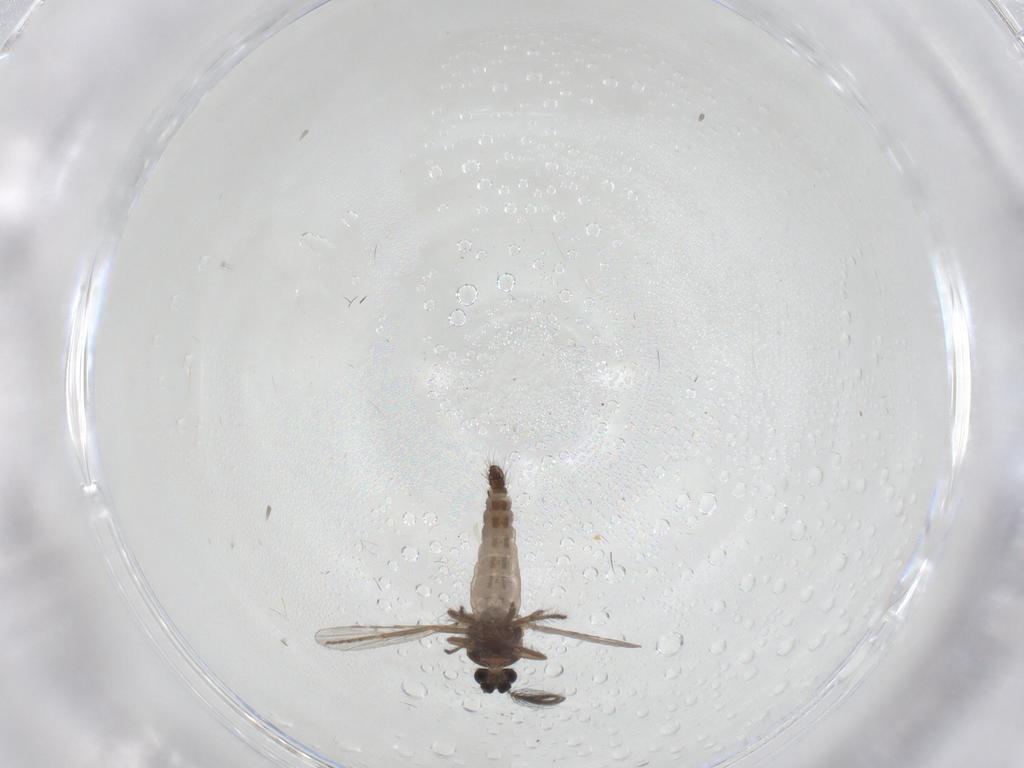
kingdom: Animalia
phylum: Arthropoda
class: Insecta
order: Diptera
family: Ceratopogonidae
